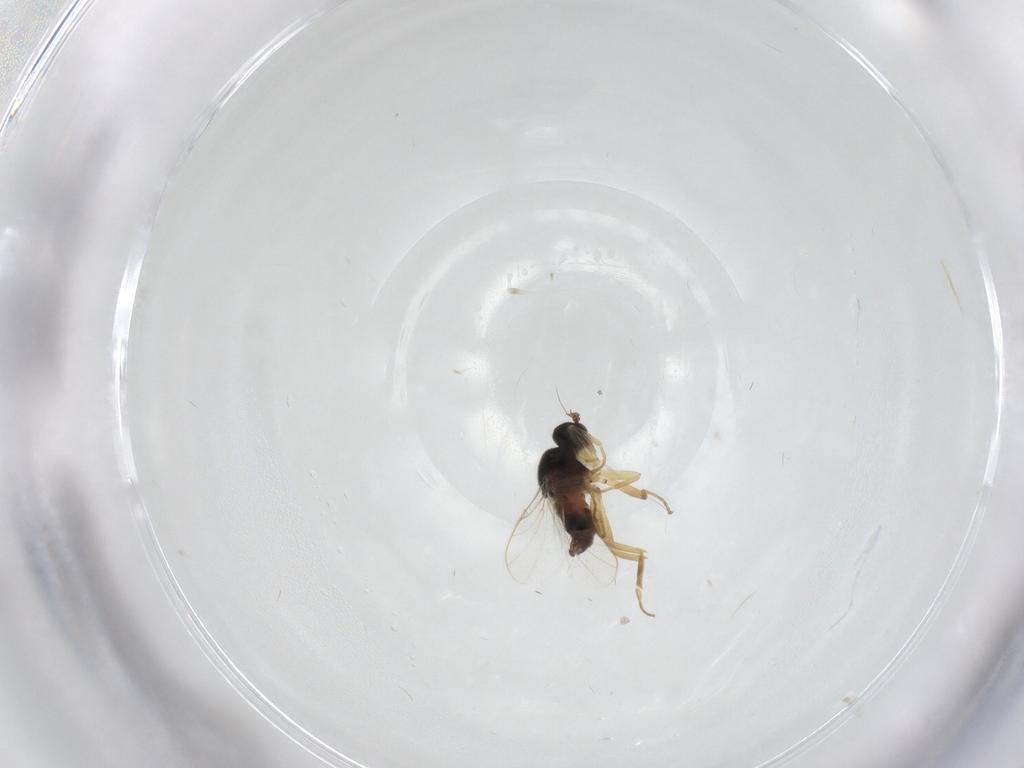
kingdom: Animalia
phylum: Arthropoda
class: Insecta
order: Diptera
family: Hybotidae
